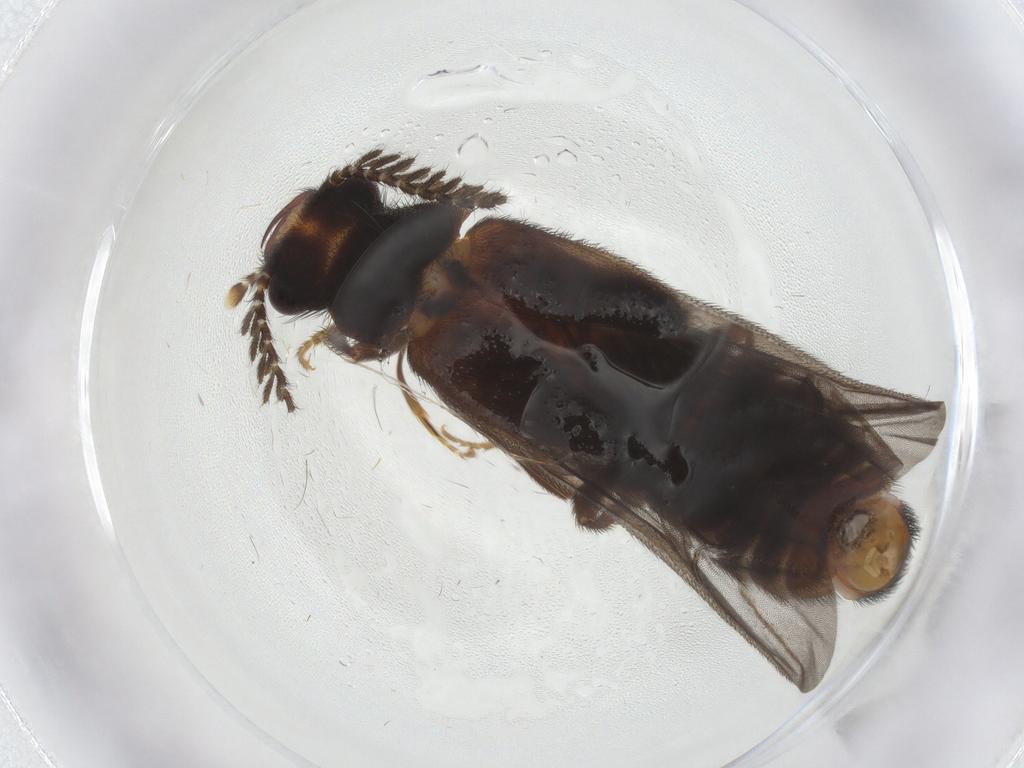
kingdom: Animalia
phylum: Arthropoda
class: Insecta
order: Coleoptera
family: Phengodidae
